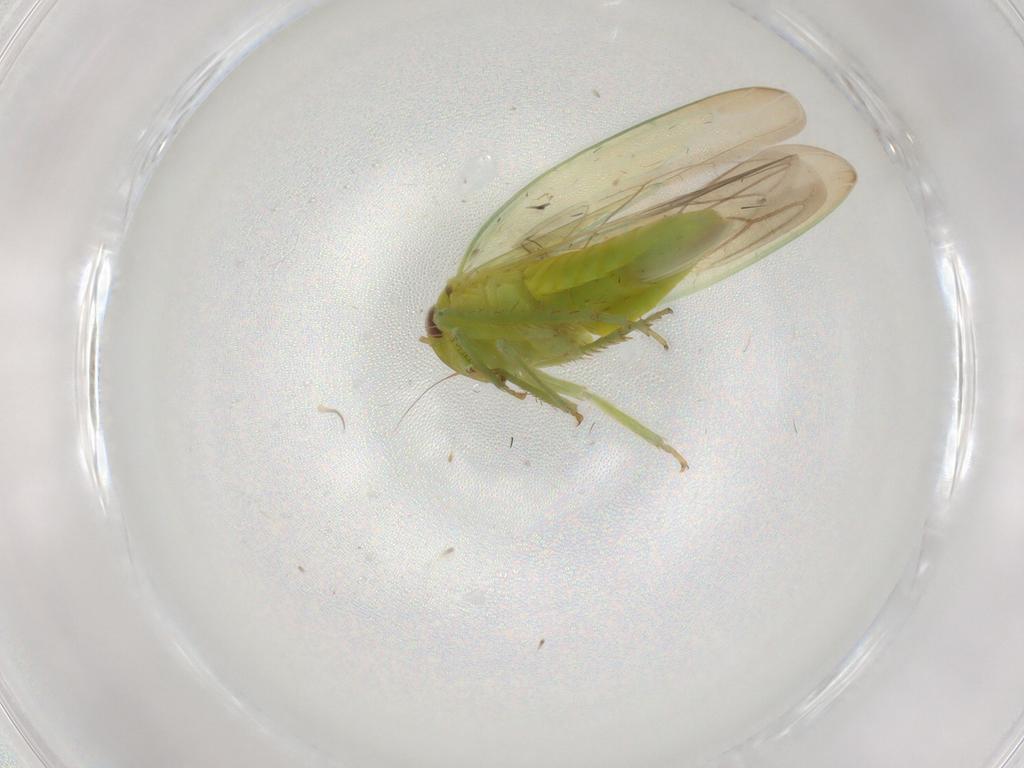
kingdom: Animalia
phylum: Arthropoda
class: Insecta
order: Hemiptera
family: Cicadellidae
